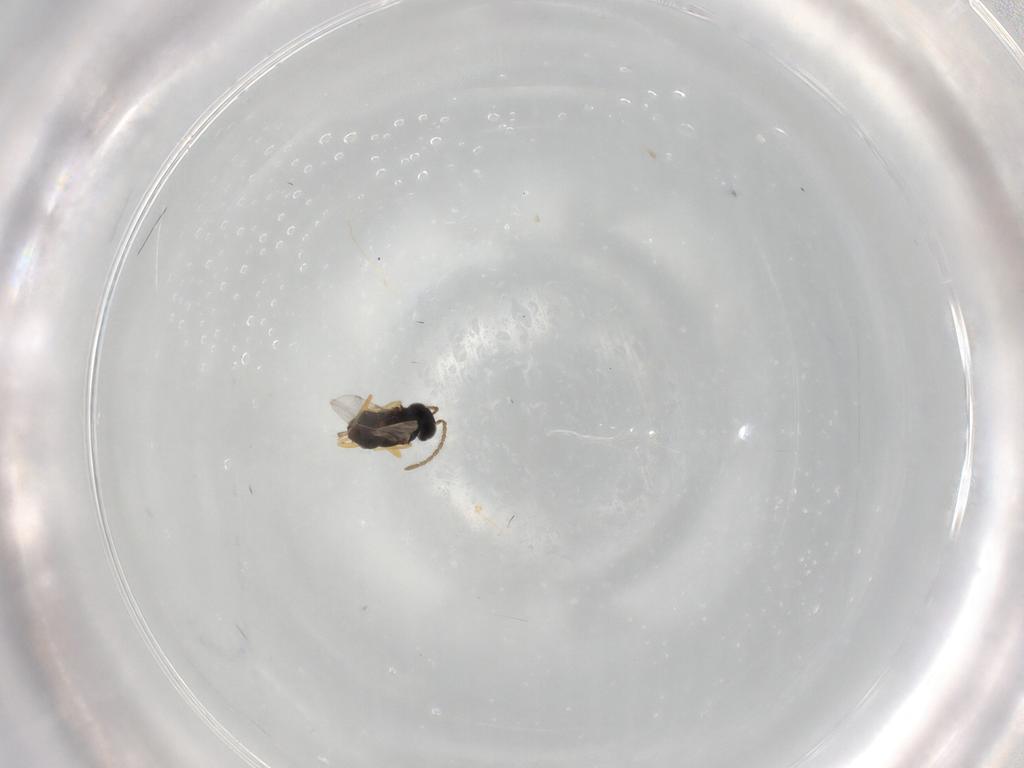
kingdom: Animalia
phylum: Arthropoda
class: Insecta
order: Hymenoptera
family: Encyrtidae
